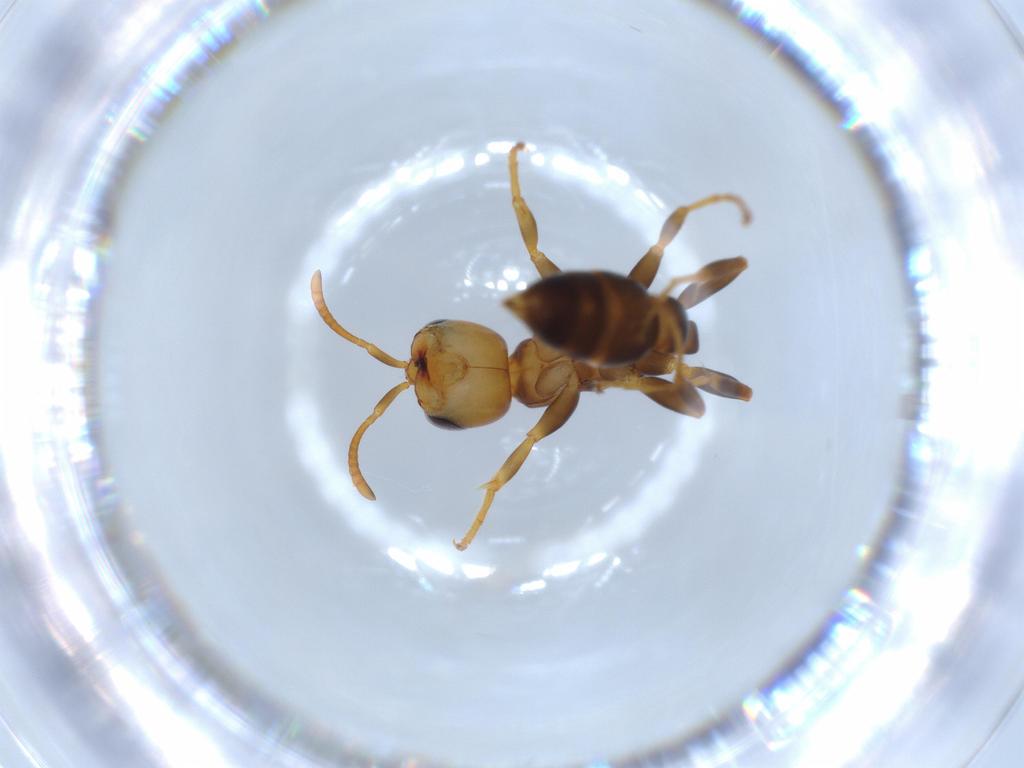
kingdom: Animalia
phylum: Arthropoda
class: Insecta
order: Hymenoptera
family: Formicidae
